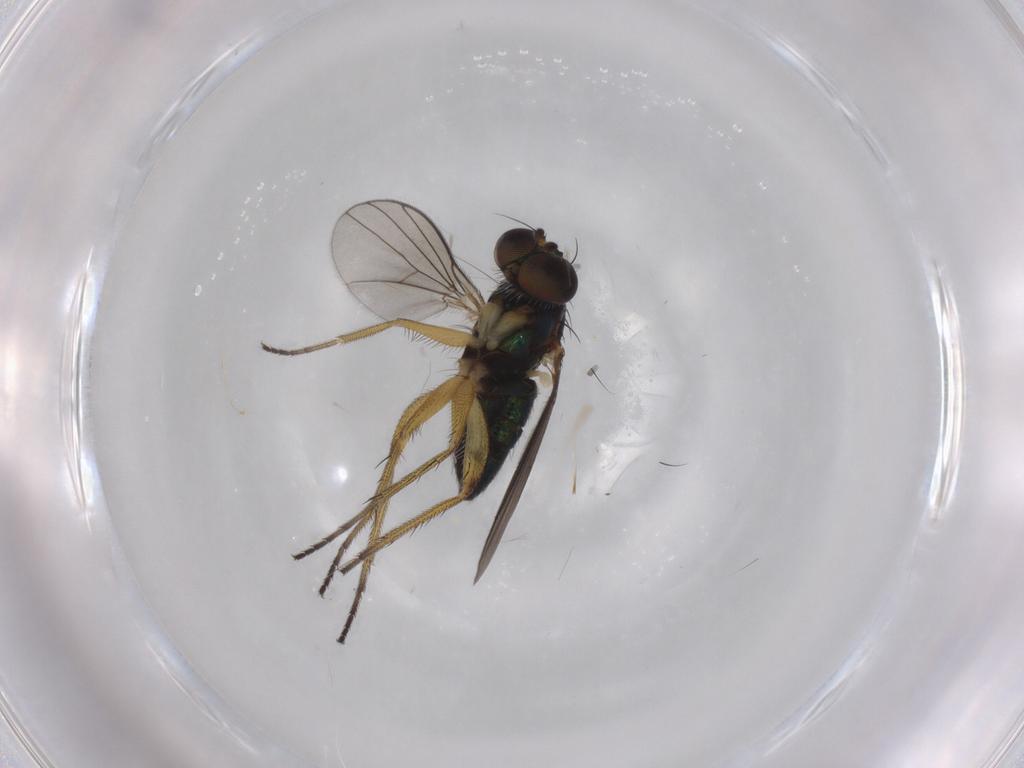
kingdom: Animalia
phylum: Arthropoda
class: Insecta
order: Diptera
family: Dolichopodidae
